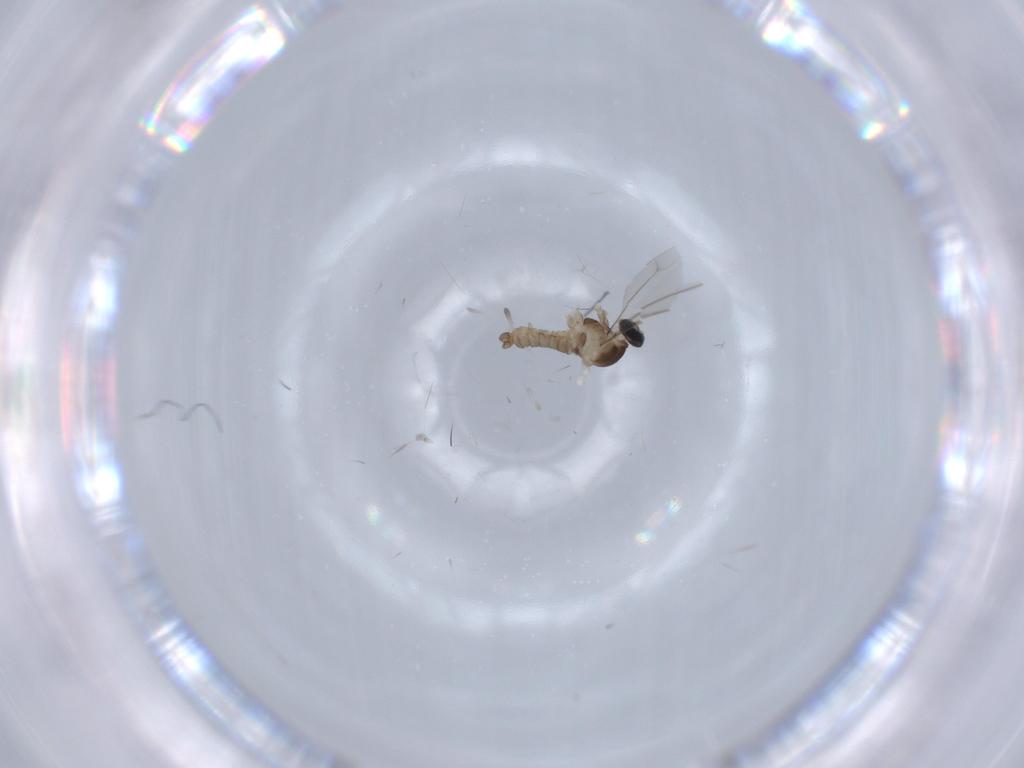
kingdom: Animalia
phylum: Arthropoda
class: Insecta
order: Diptera
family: Cecidomyiidae
